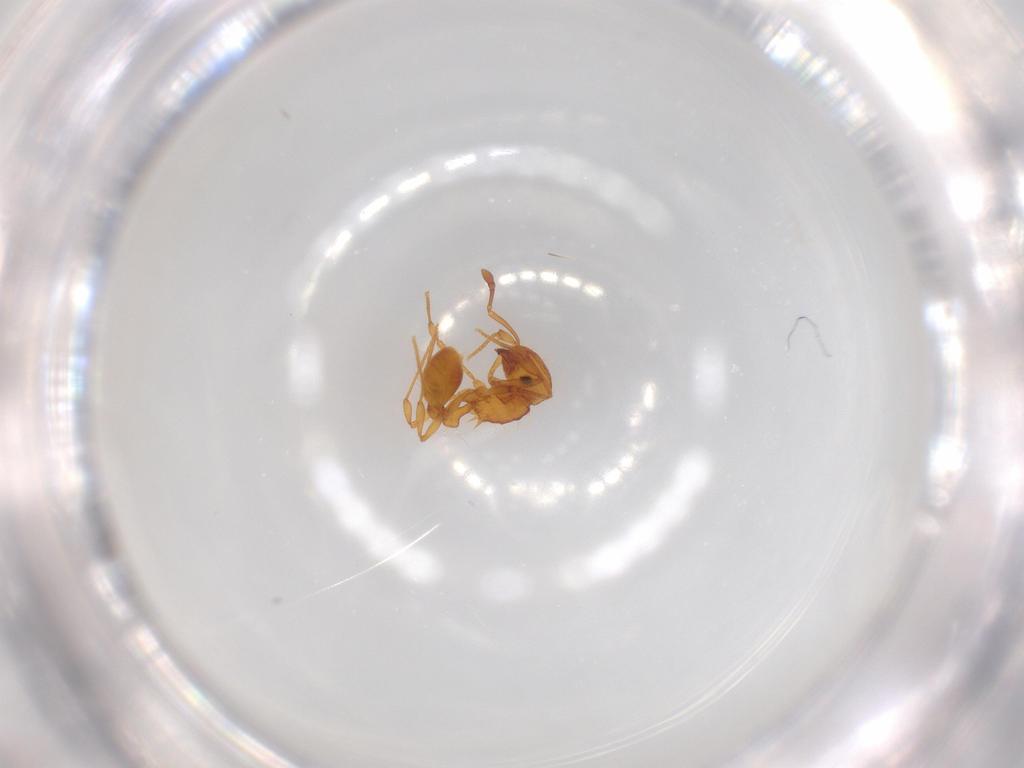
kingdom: Animalia
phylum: Arthropoda
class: Insecta
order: Hymenoptera
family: Formicidae
